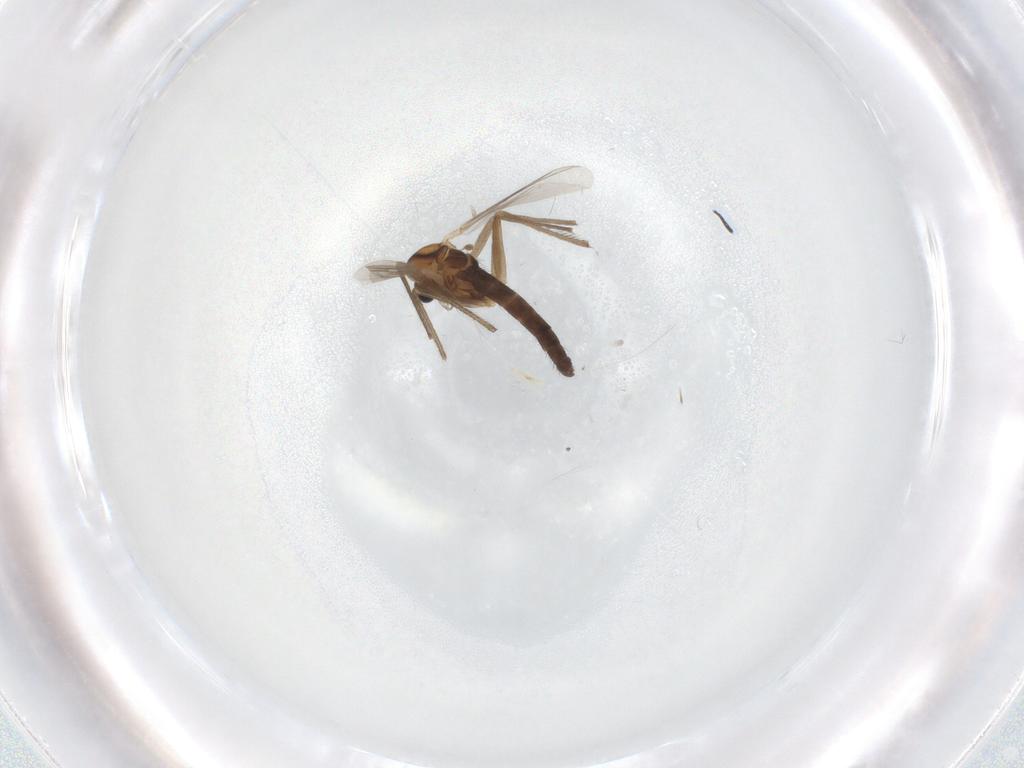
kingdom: Animalia
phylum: Arthropoda
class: Insecta
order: Diptera
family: Chironomidae
